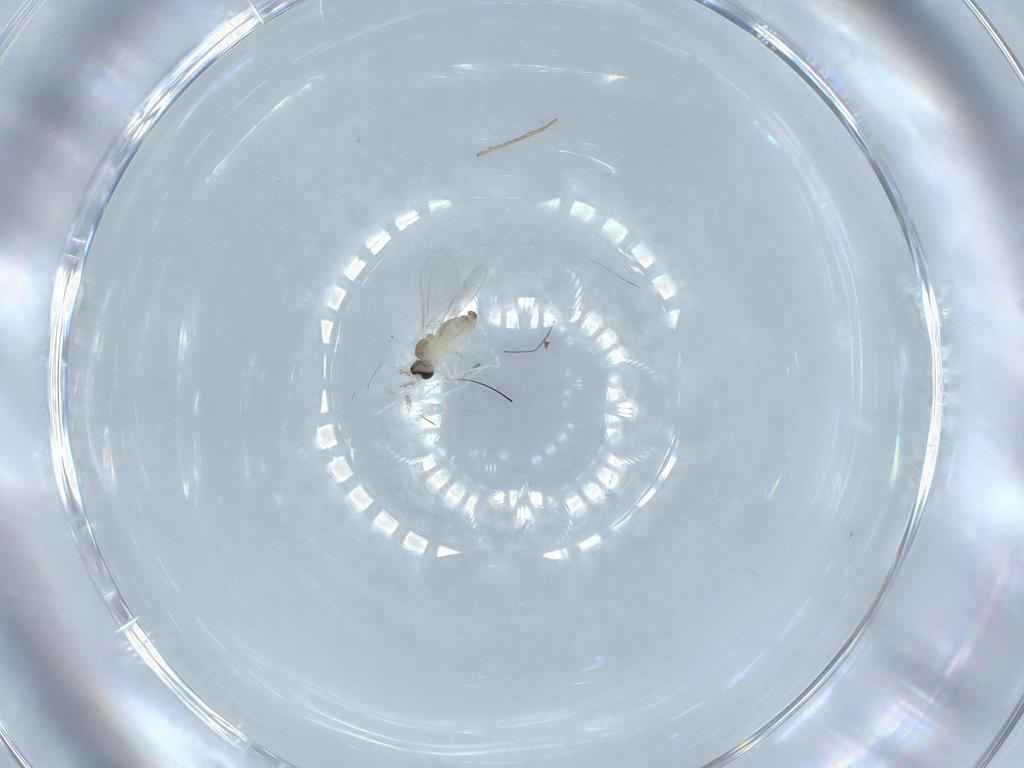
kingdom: Animalia
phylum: Arthropoda
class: Insecta
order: Diptera
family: Cecidomyiidae
